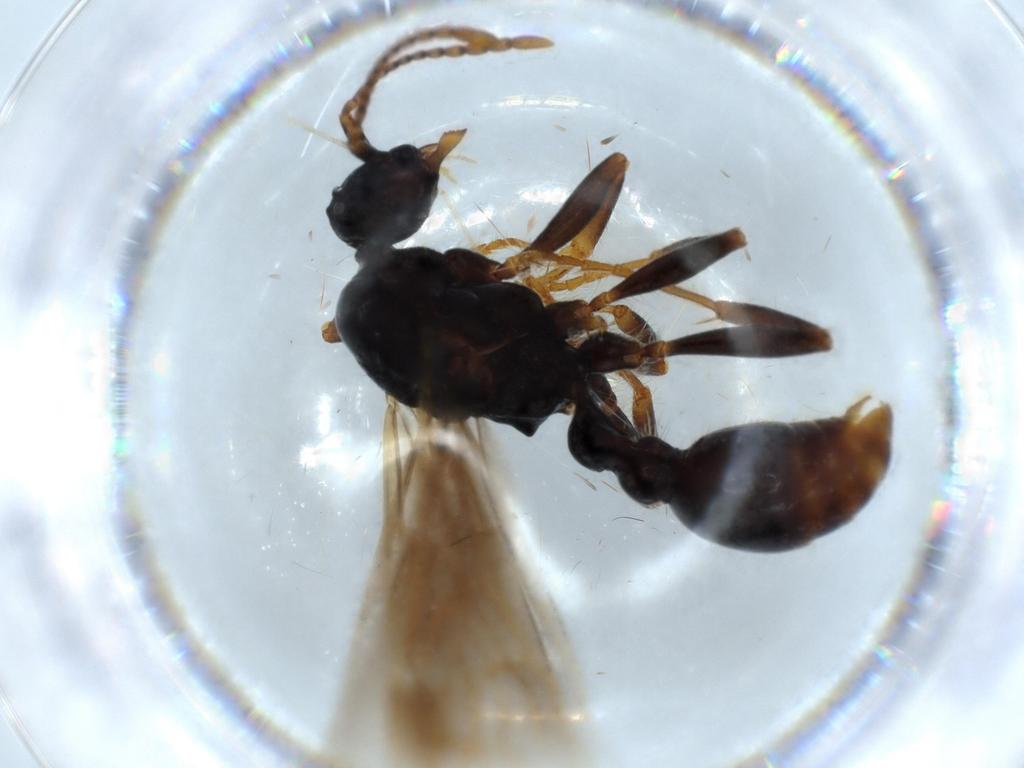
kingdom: Animalia
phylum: Arthropoda
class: Insecta
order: Hymenoptera
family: Formicidae
